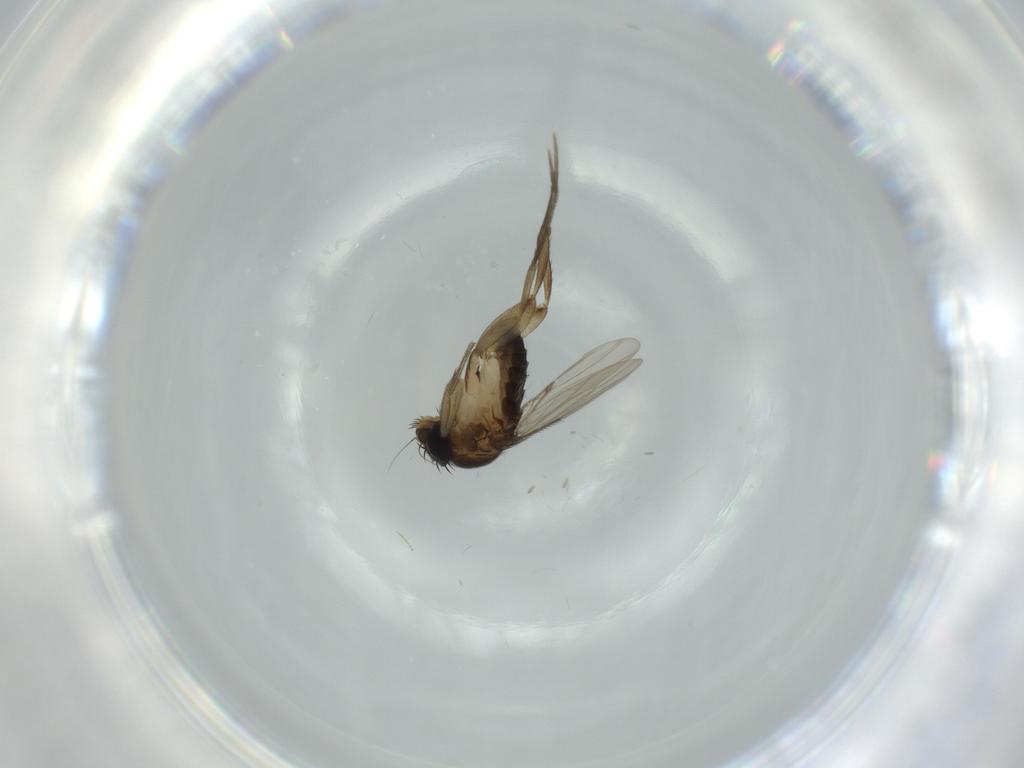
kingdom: Animalia
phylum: Arthropoda
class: Insecta
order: Diptera
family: Phoridae
